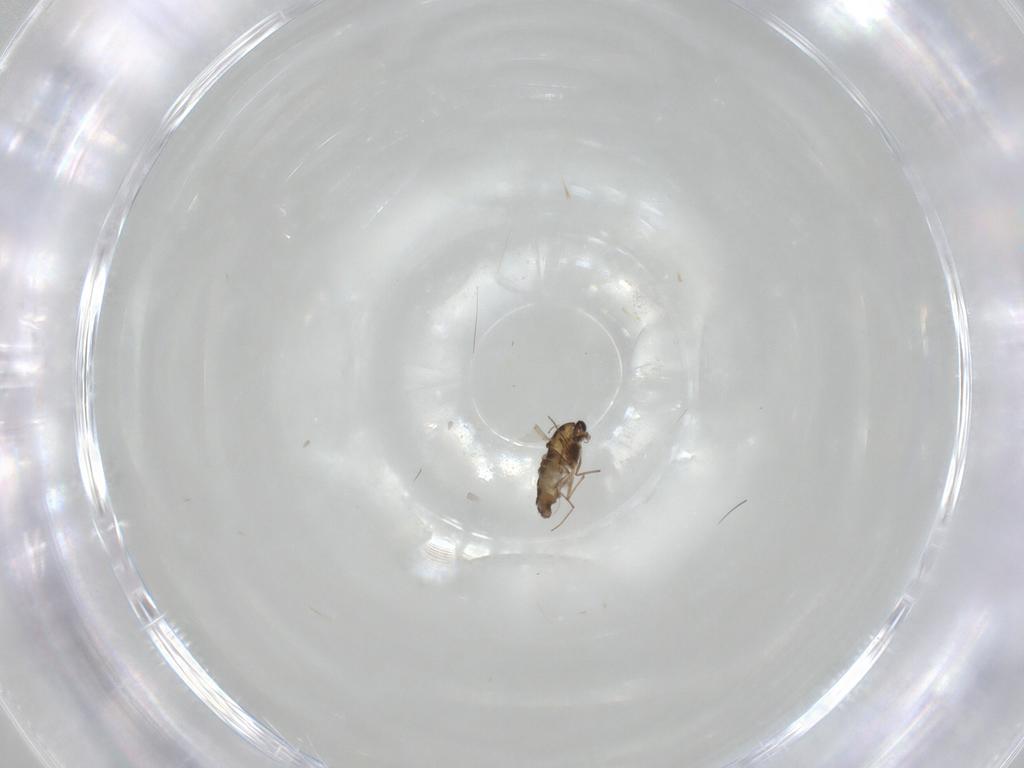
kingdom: Animalia
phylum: Arthropoda
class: Insecta
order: Diptera
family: Chironomidae
